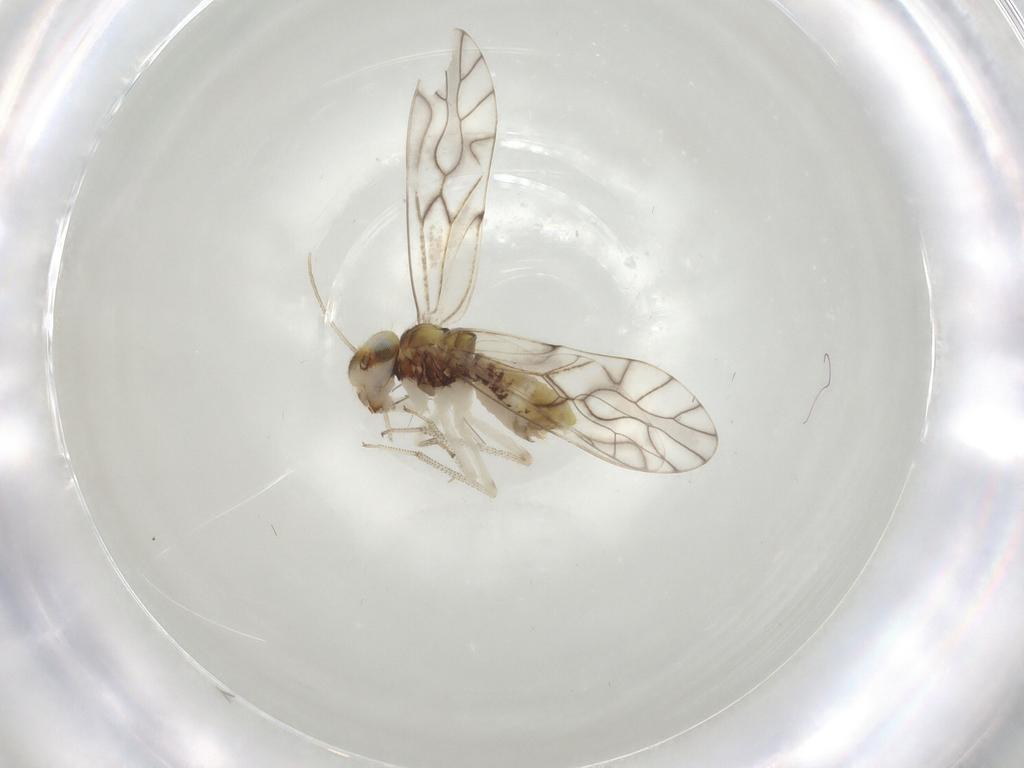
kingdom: Animalia
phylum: Arthropoda
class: Insecta
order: Psocodea
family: Elipsocidae
